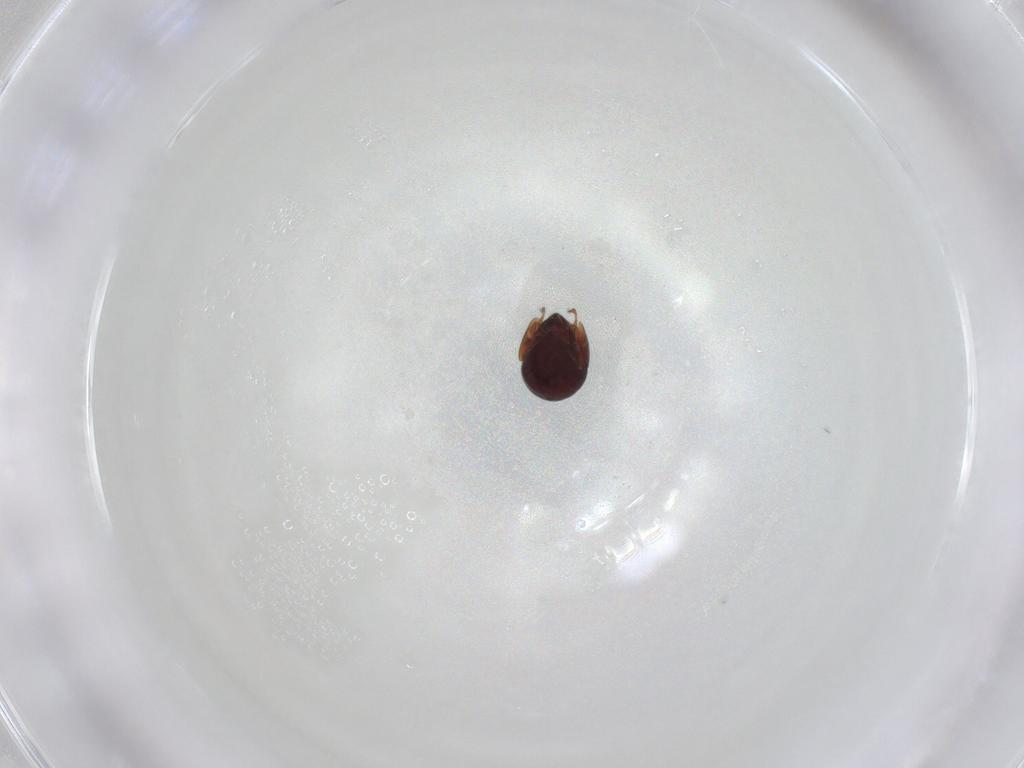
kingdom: Animalia
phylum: Arthropoda
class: Arachnida
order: Sarcoptiformes
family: Galumnidae
